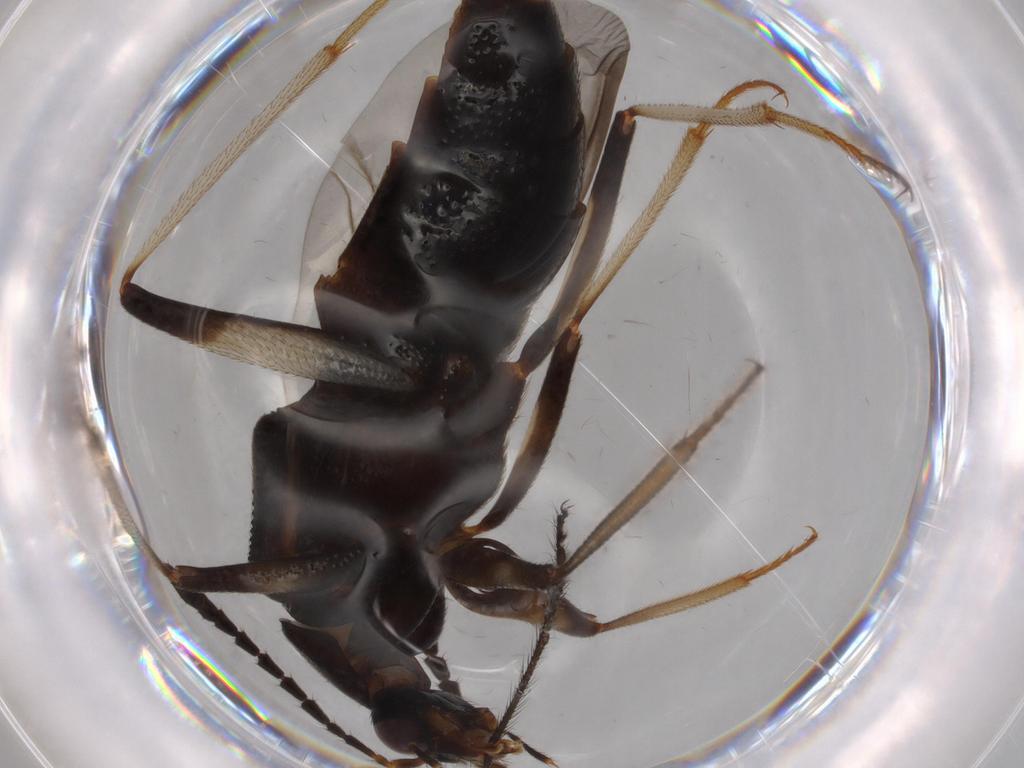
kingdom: Animalia
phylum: Arthropoda
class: Insecta
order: Coleoptera
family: Staphylinidae
